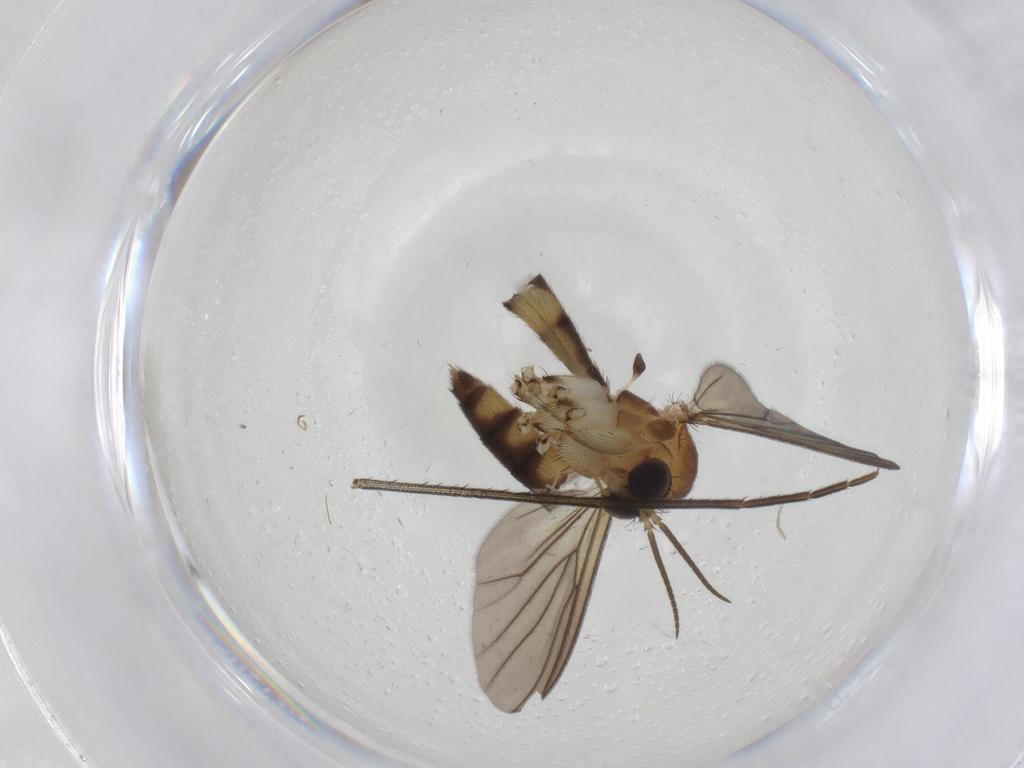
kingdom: Animalia
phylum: Arthropoda
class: Insecta
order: Diptera
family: Mycetophilidae
